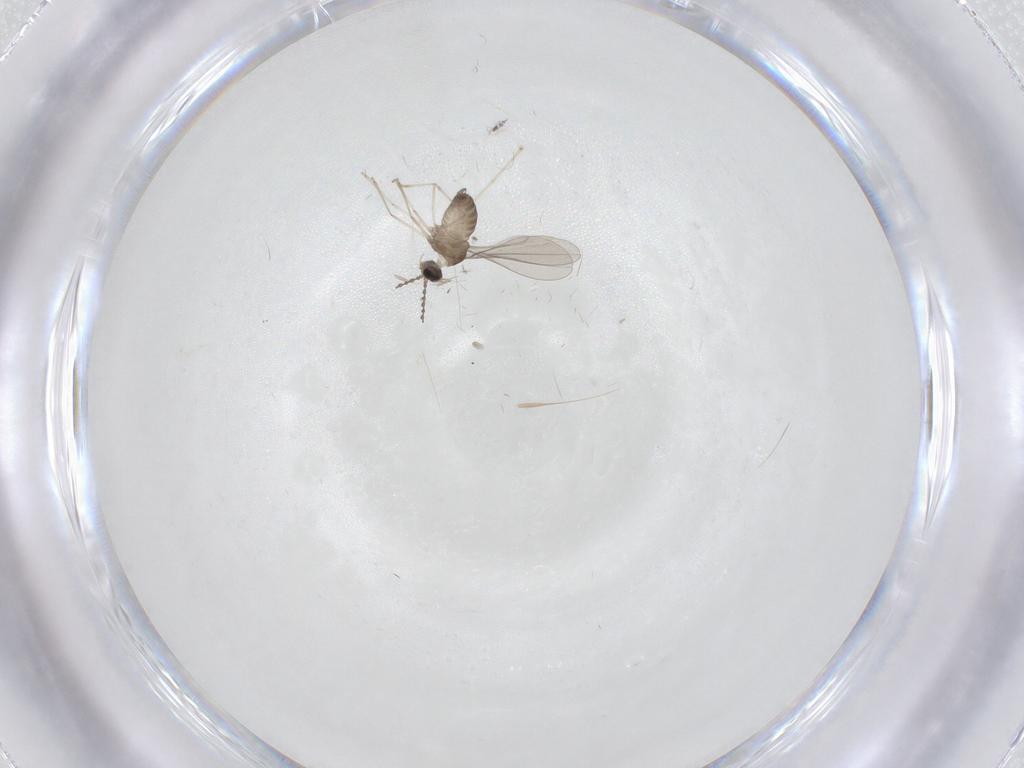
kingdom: Animalia
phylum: Arthropoda
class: Insecta
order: Diptera
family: Cecidomyiidae
